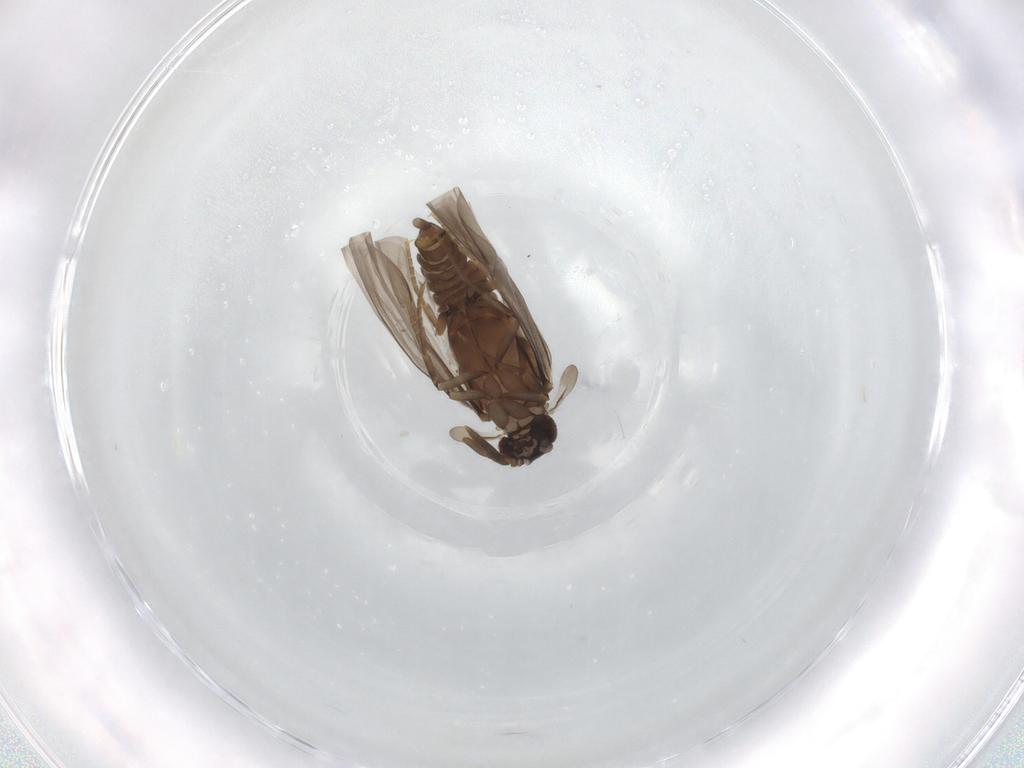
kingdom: Animalia
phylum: Arthropoda
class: Insecta
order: Strepsiptera
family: Mengenillidae
